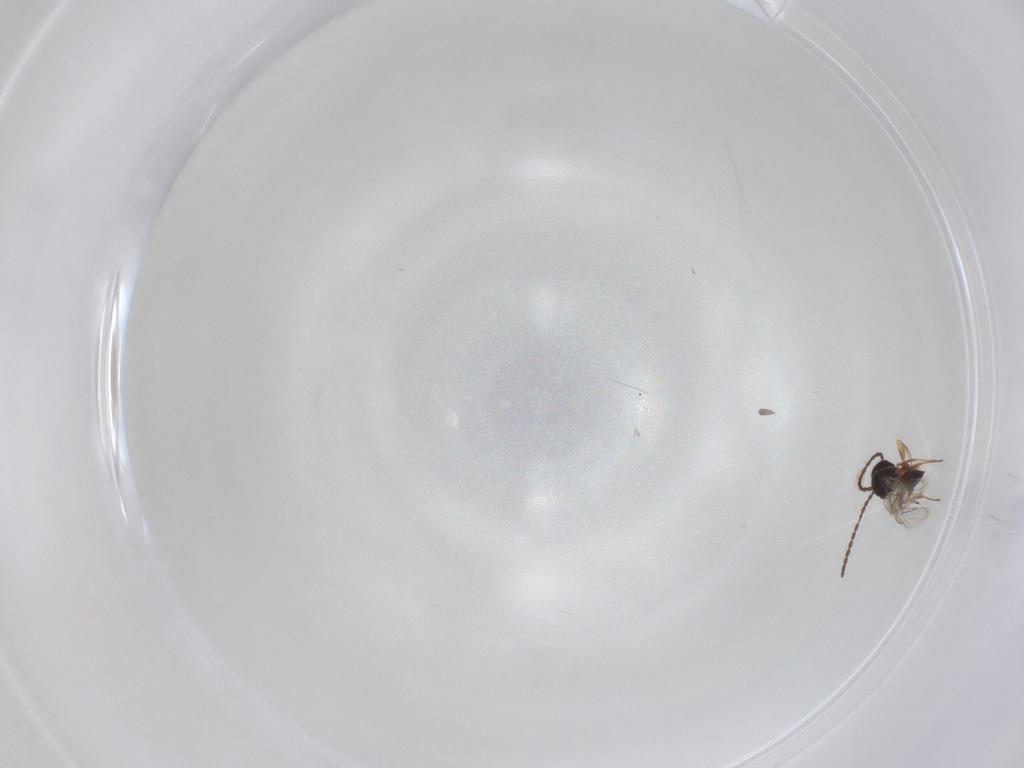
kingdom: Animalia
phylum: Arthropoda
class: Insecta
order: Hymenoptera
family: Figitidae
